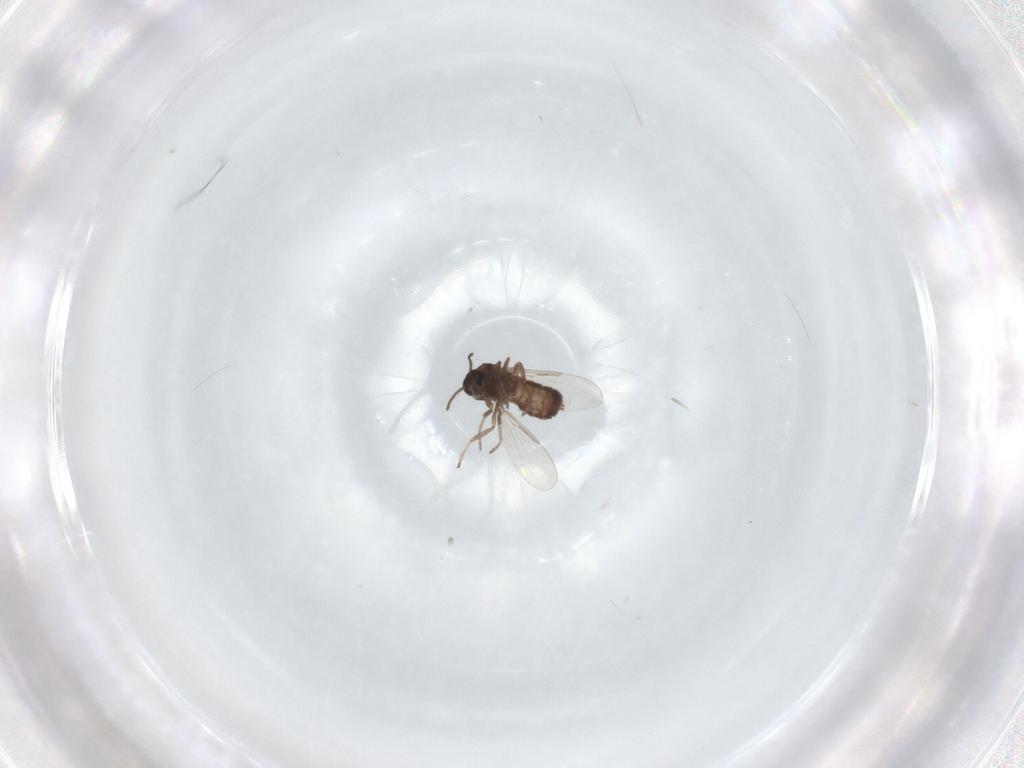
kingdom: Animalia
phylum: Arthropoda
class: Insecta
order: Diptera
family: Ceratopogonidae
